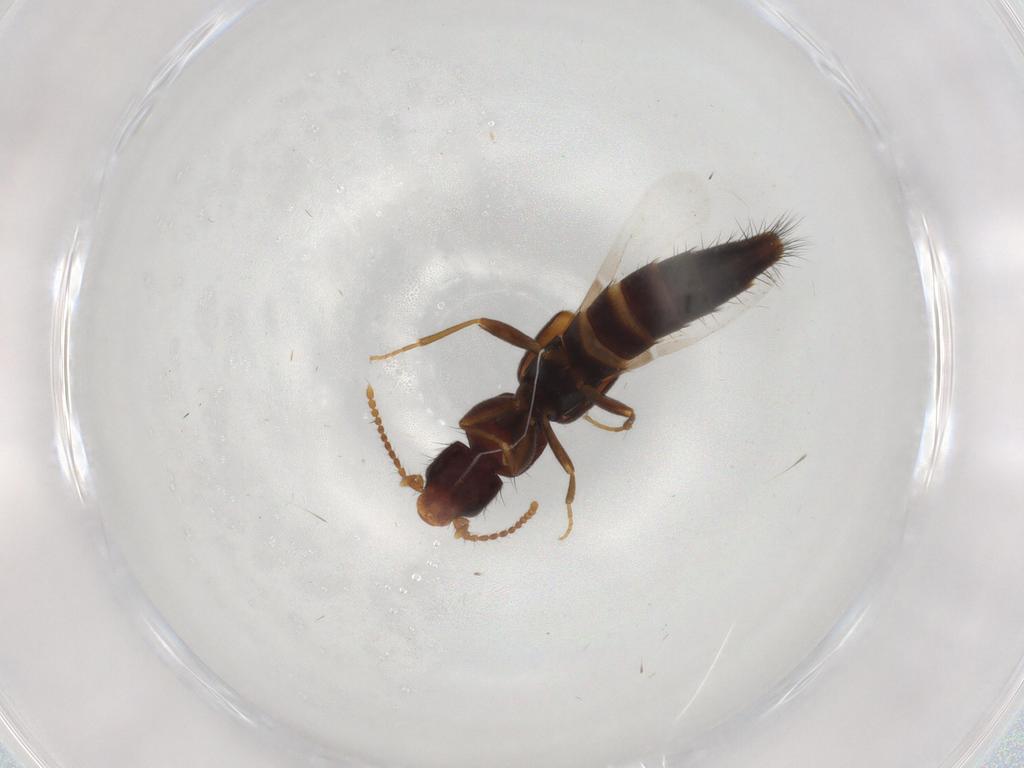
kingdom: Animalia
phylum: Arthropoda
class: Insecta
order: Coleoptera
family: Staphylinidae
